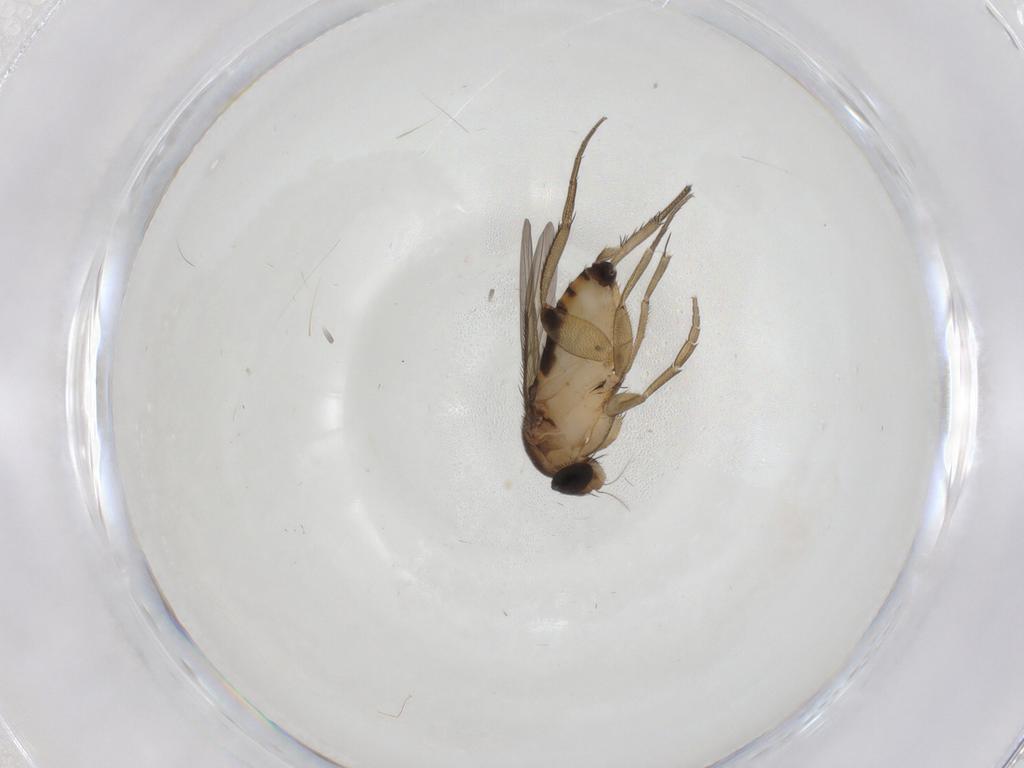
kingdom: Animalia
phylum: Arthropoda
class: Insecta
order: Diptera
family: Phoridae
